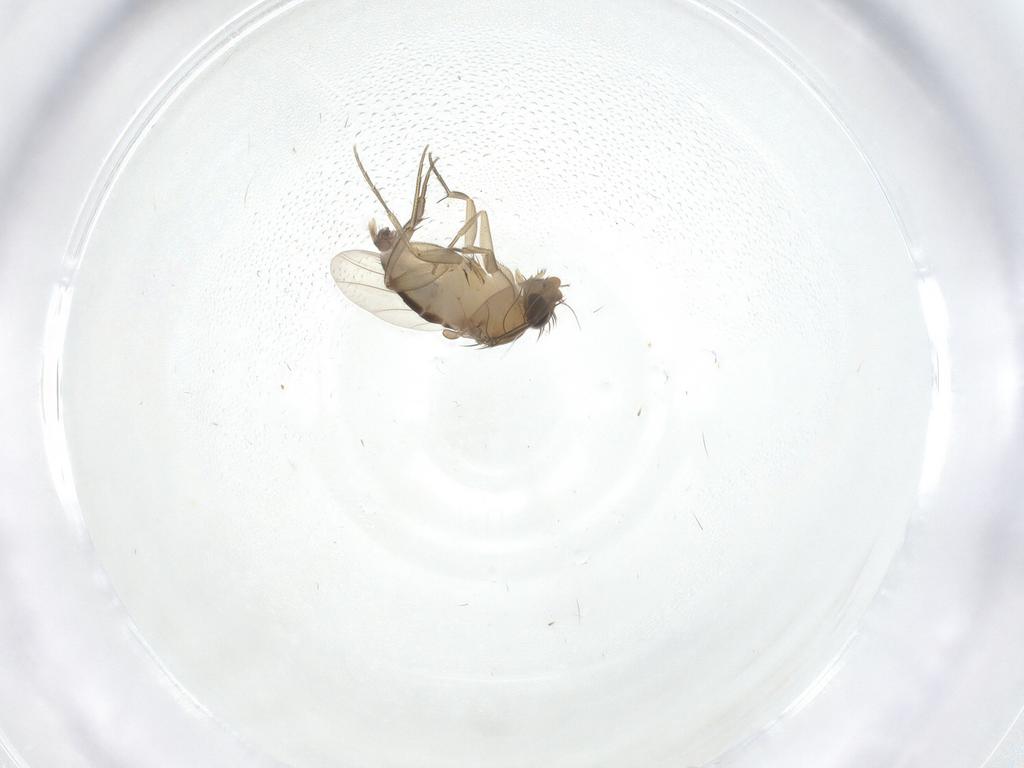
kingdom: Animalia
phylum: Arthropoda
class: Insecta
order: Diptera
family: Phoridae
